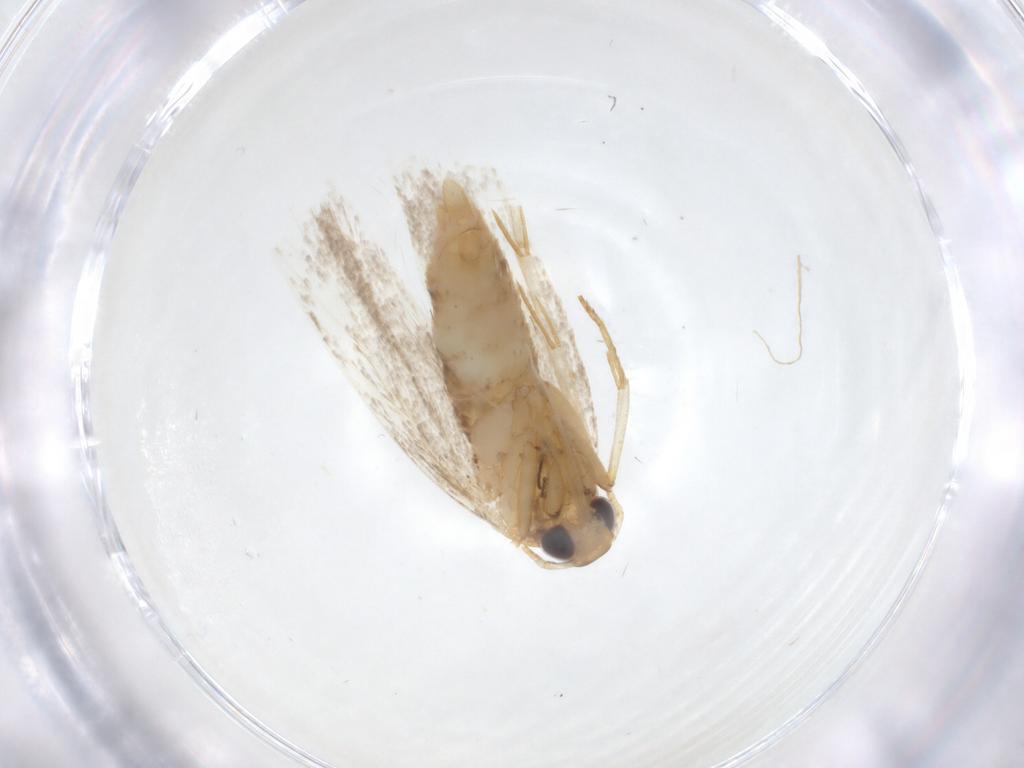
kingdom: Animalia
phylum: Arthropoda
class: Insecta
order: Lepidoptera
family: Oecophoridae
